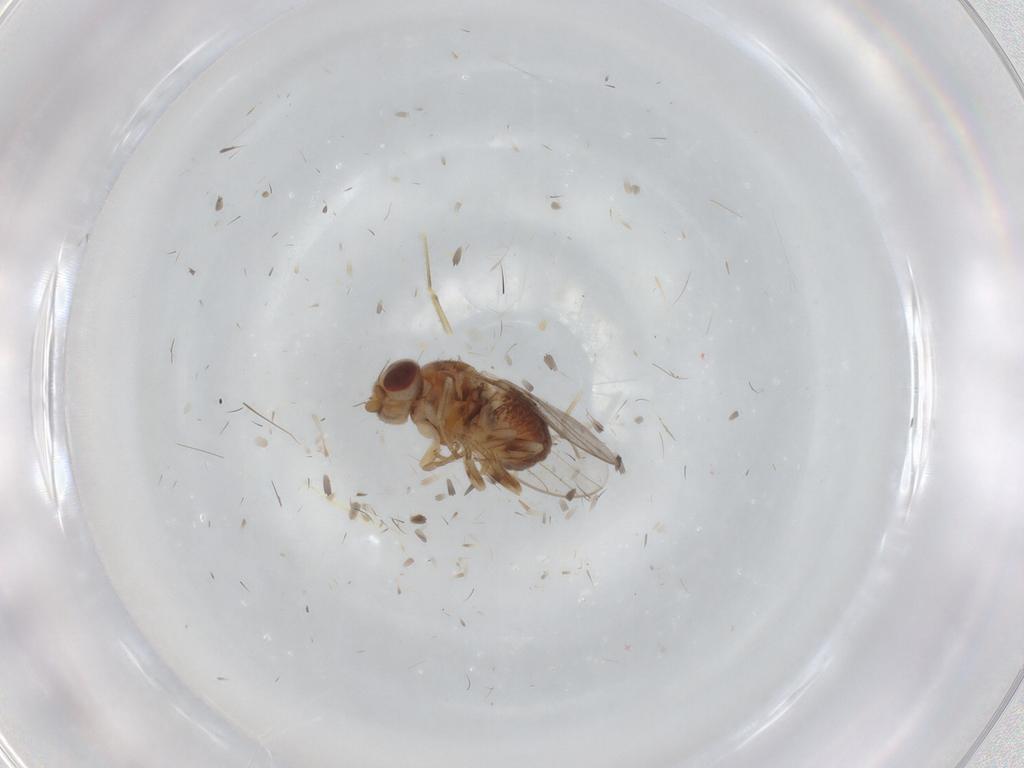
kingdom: Animalia
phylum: Arthropoda
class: Insecta
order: Diptera
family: Chloropidae
